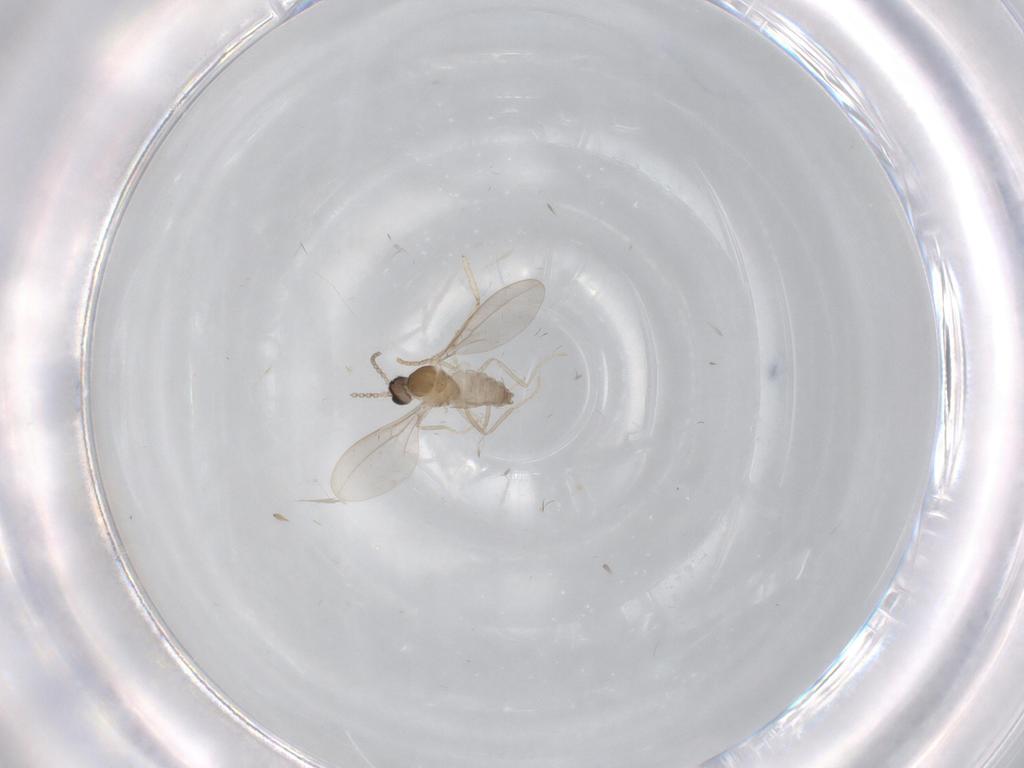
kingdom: Animalia
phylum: Arthropoda
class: Insecta
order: Diptera
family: Cecidomyiidae
